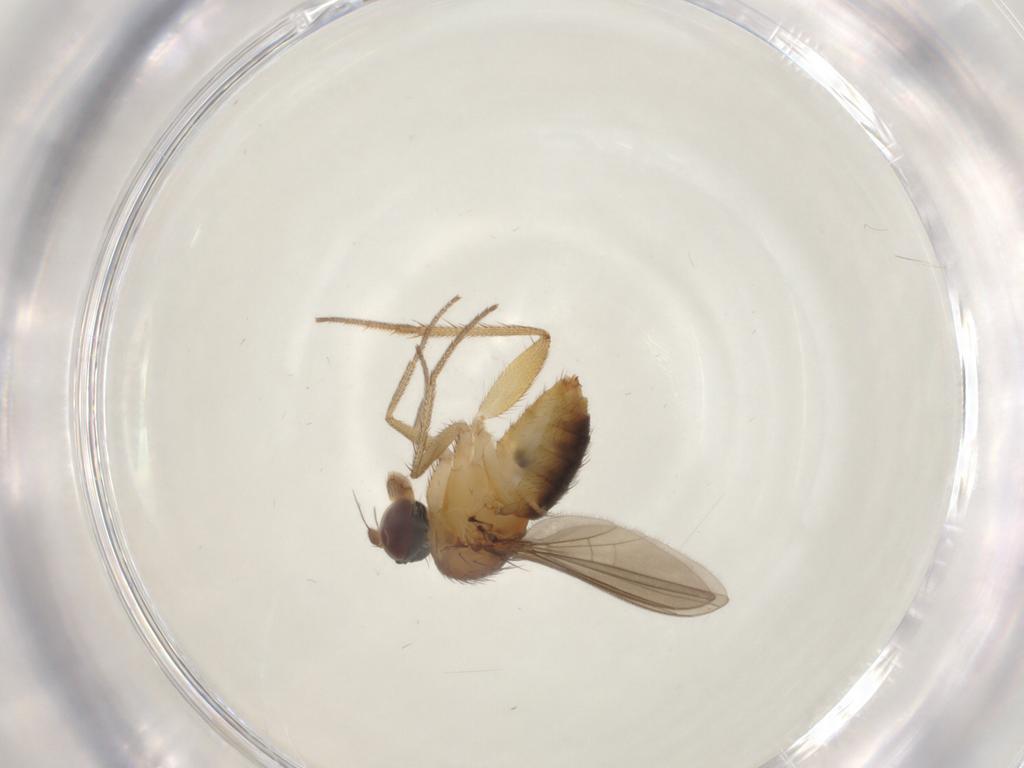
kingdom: Animalia
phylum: Arthropoda
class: Insecta
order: Diptera
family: Dolichopodidae
